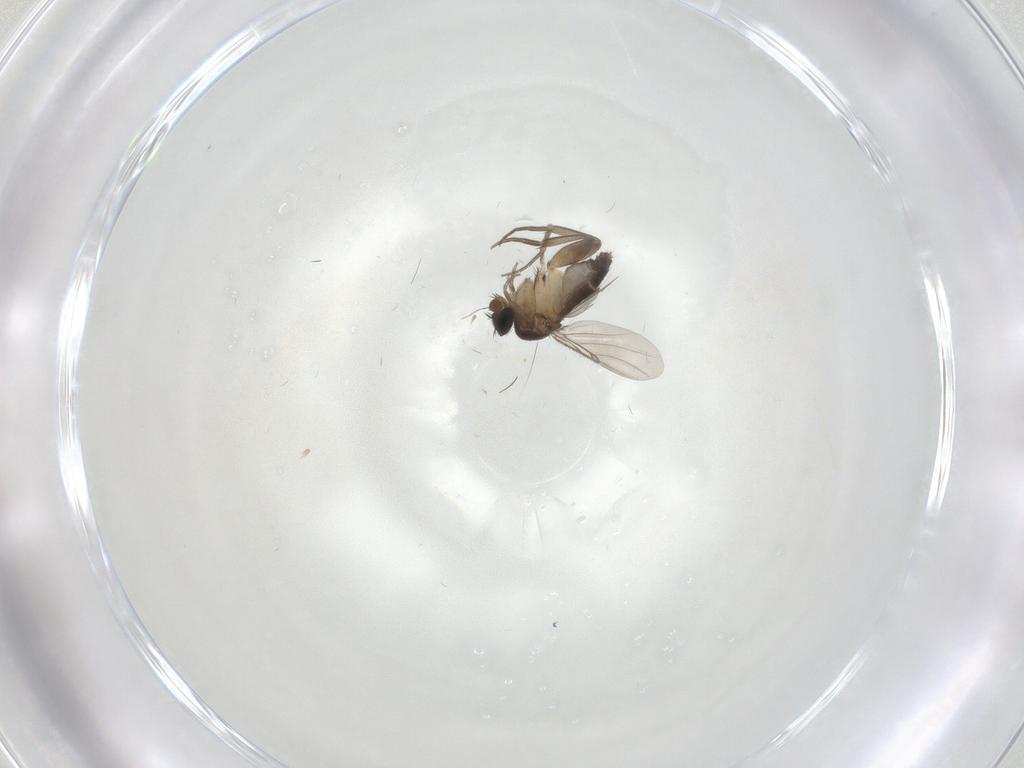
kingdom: Animalia
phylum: Arthropoda
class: Insecta
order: Diptera
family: Phoridae
